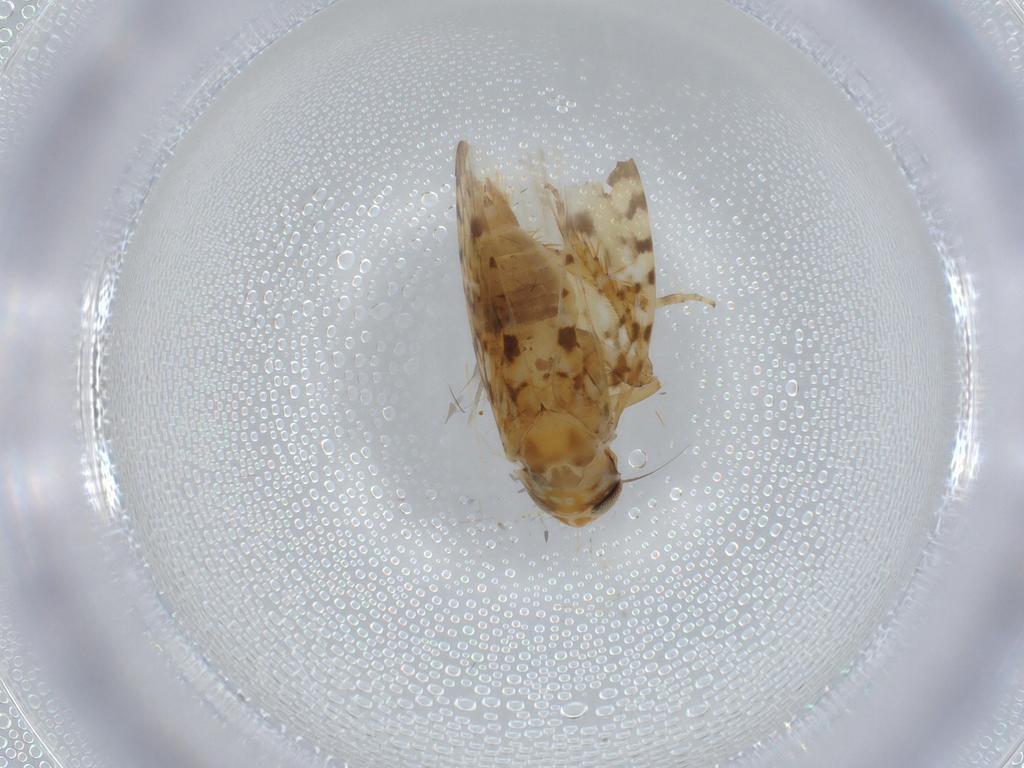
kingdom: Animalia
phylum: Arthropoda
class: Insecta
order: Hemiptera
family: Cicadellidae
